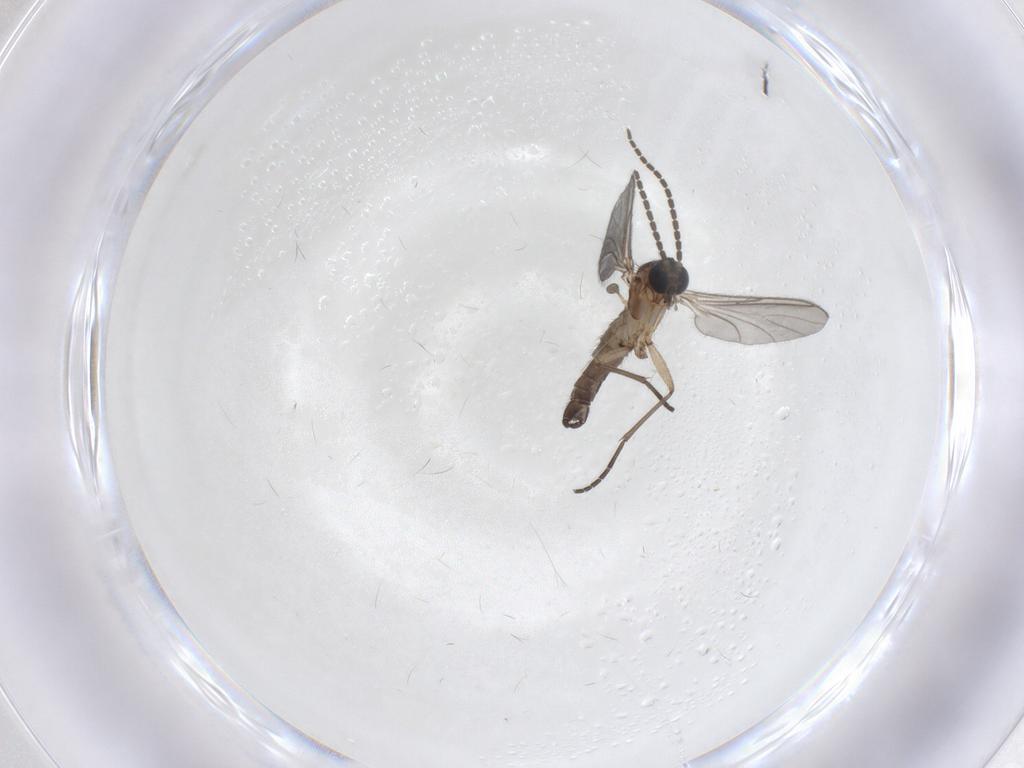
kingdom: Animalia
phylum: Arthropoda
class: Insecta
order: Diptera
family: Sciaridae
